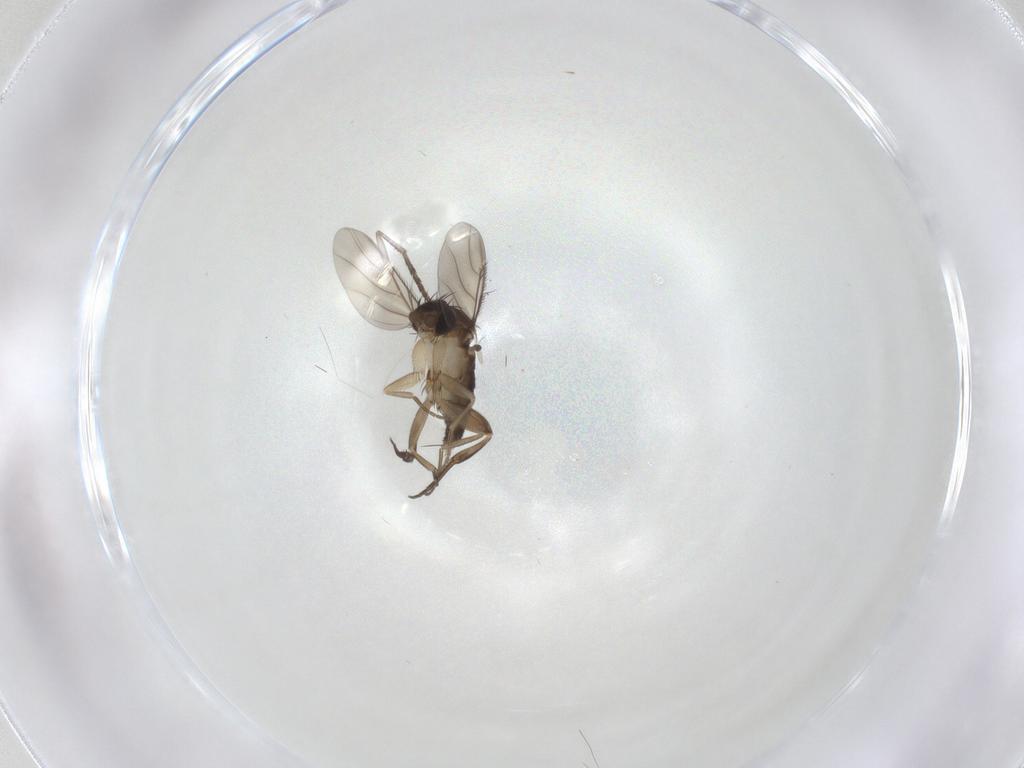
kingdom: Animalia
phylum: Arthropoda
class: Insecta
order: Diptera
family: Phoridae
